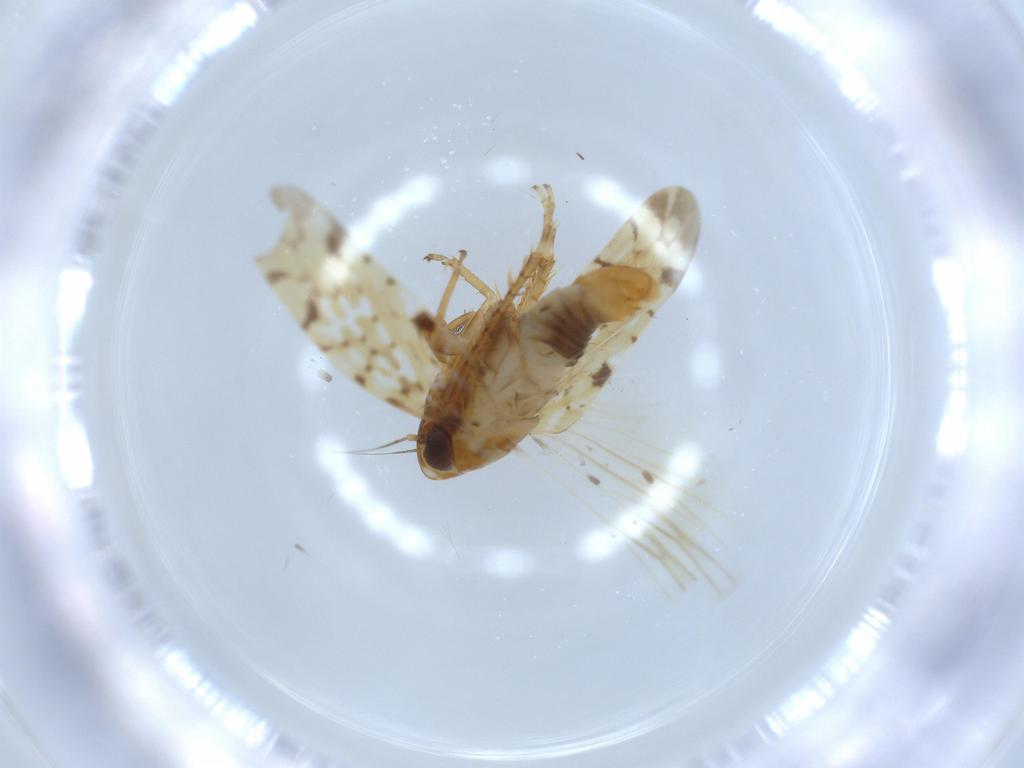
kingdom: Animalia
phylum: Arthropoda
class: Insecta
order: Hemiptera
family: Cicadellidae
